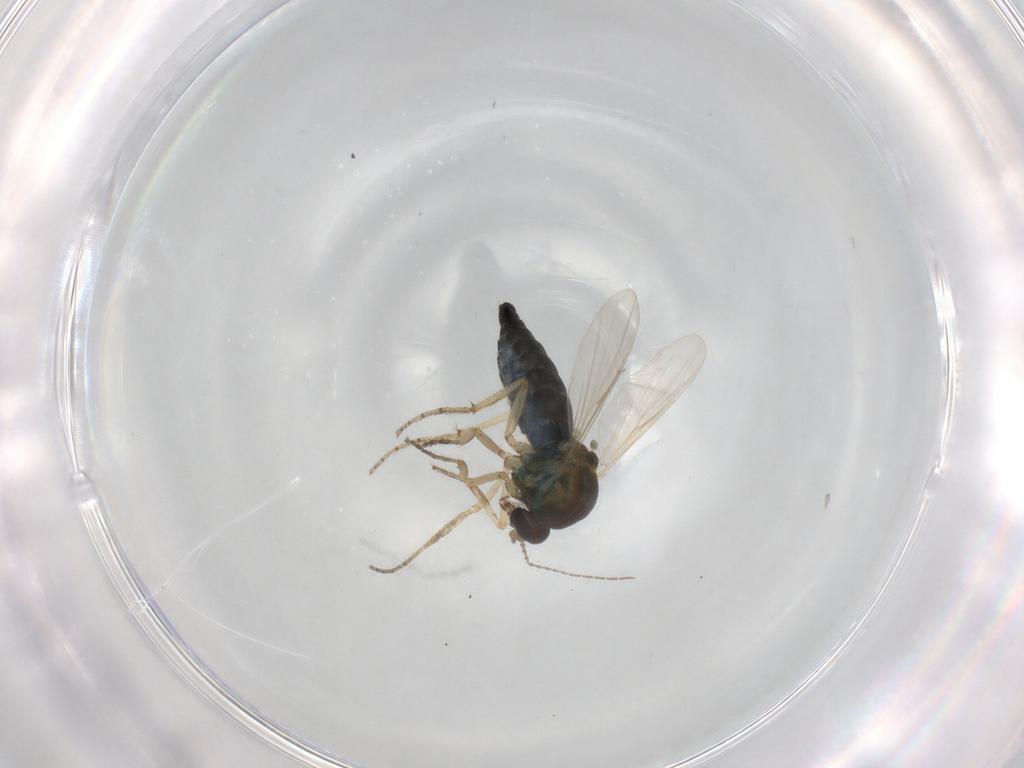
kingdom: Animalia
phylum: Arthropoda
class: Insecta
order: Diptera
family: Ceratopogonidae
